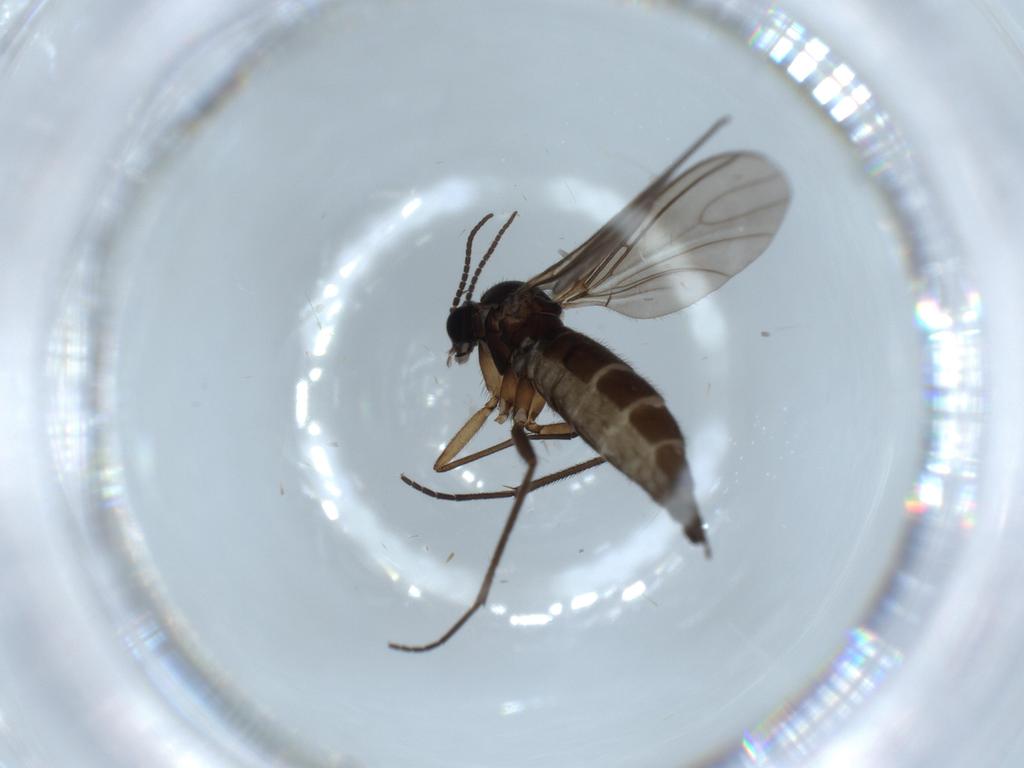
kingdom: Animalia
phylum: Arthropoda
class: Insecta
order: Diptera
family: Sciaridae
